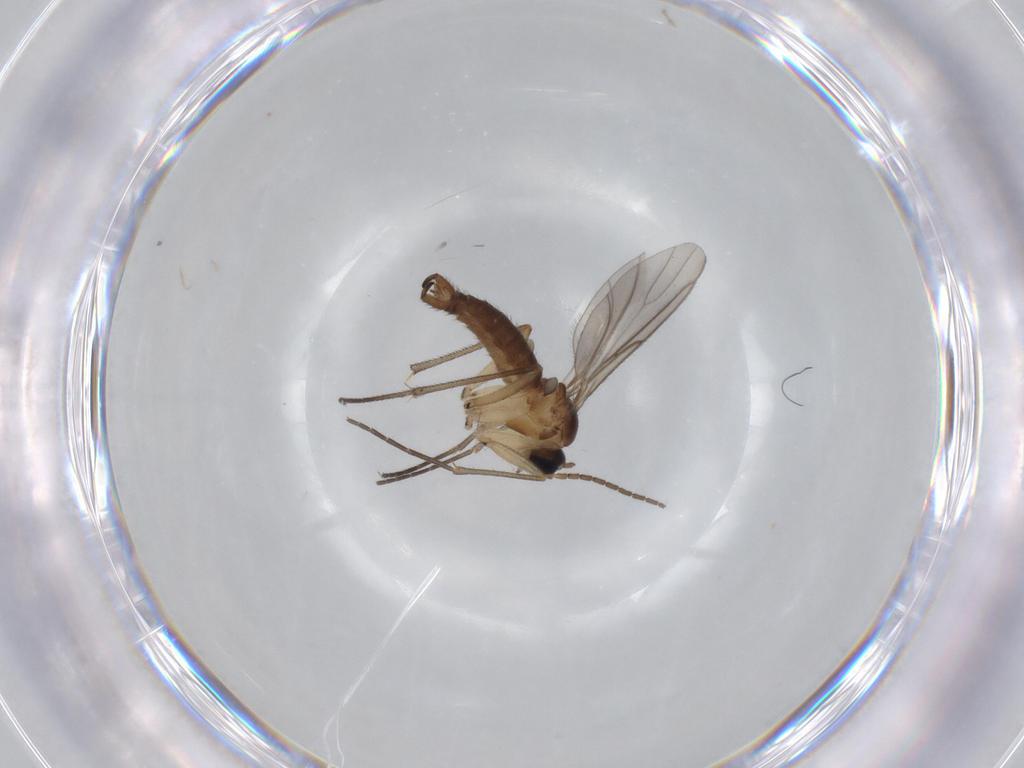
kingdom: Animalia
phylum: Arthropoda
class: Insecta
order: Diptera
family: Sciaridae
